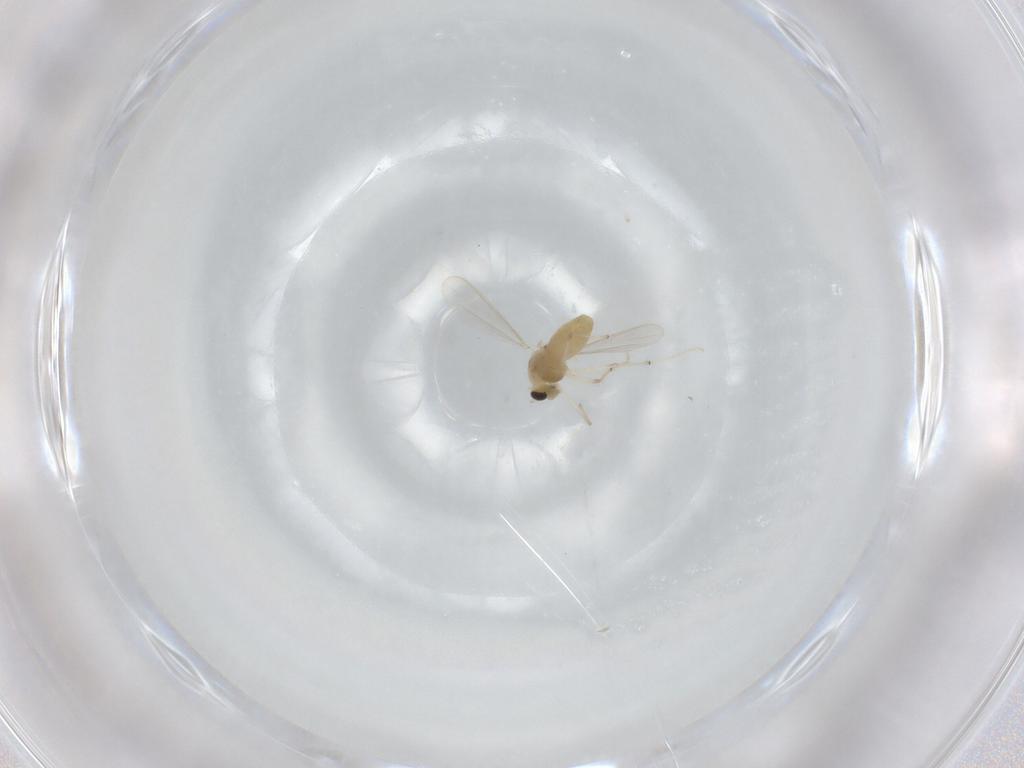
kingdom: Animalia
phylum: Arthropoda
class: Insecta
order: Diptera
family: Chironomidae
